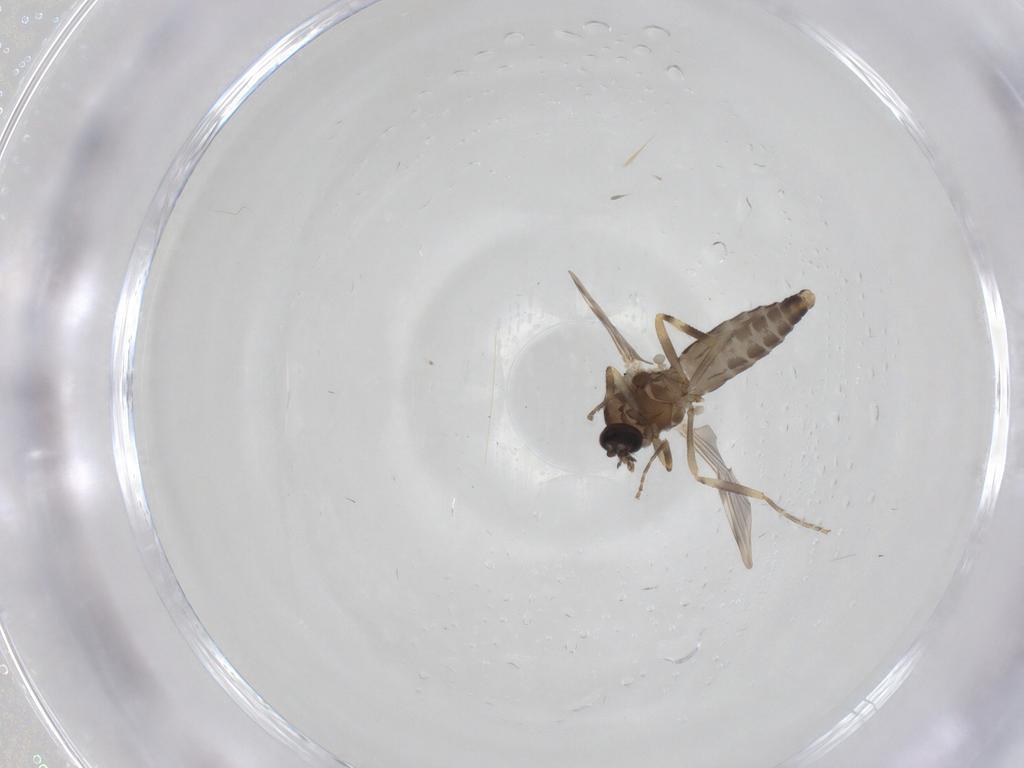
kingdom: Animalia
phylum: Arthropoda
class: Insecta
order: Diptera
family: Ceratopogonidae
